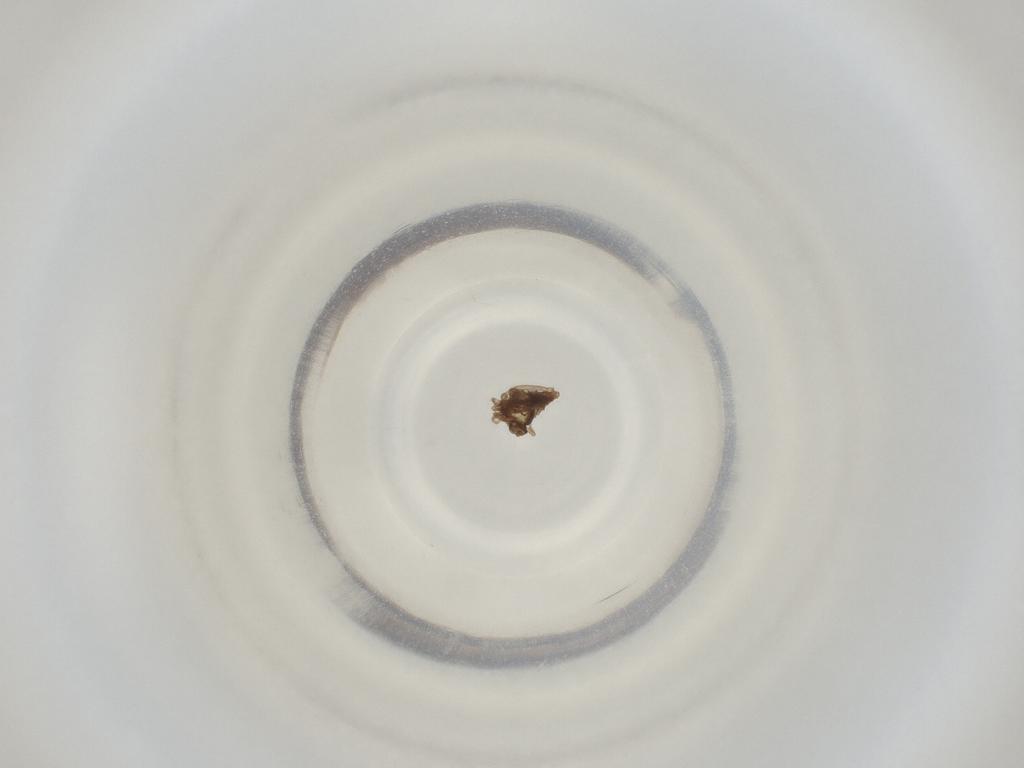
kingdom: Animalia
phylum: Arthropoda
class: Insecta
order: Diptera
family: Cecidomyiidae
